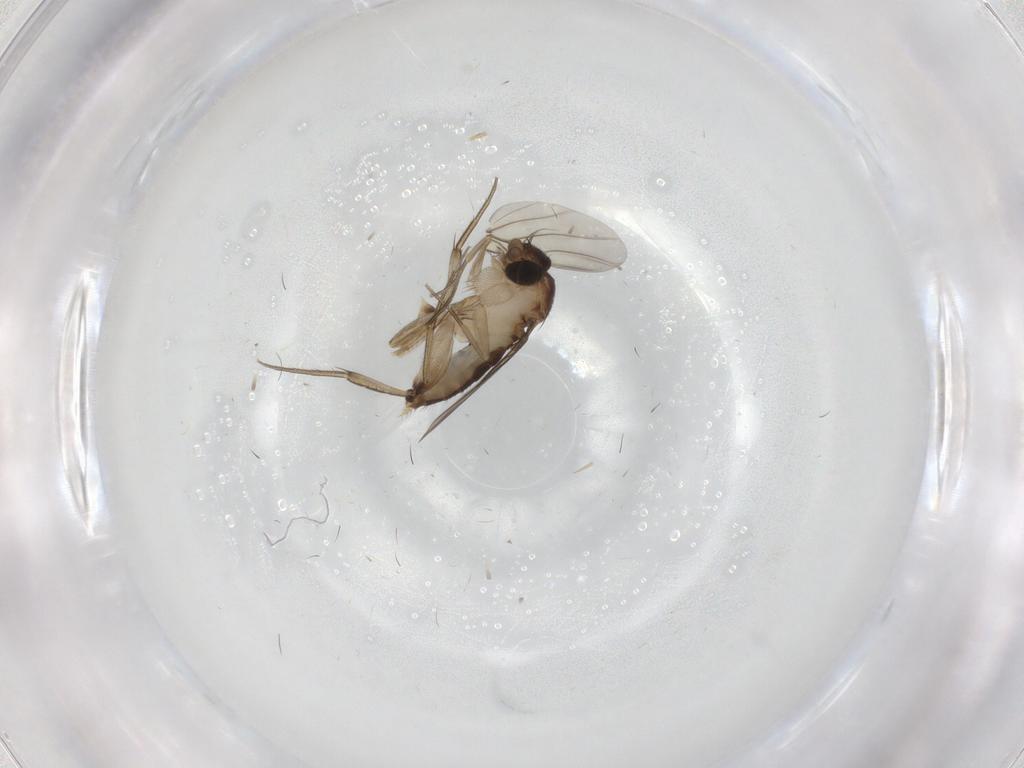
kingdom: Animalia
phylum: Arthropoda
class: Insecta
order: Diptera
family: Phoridae
